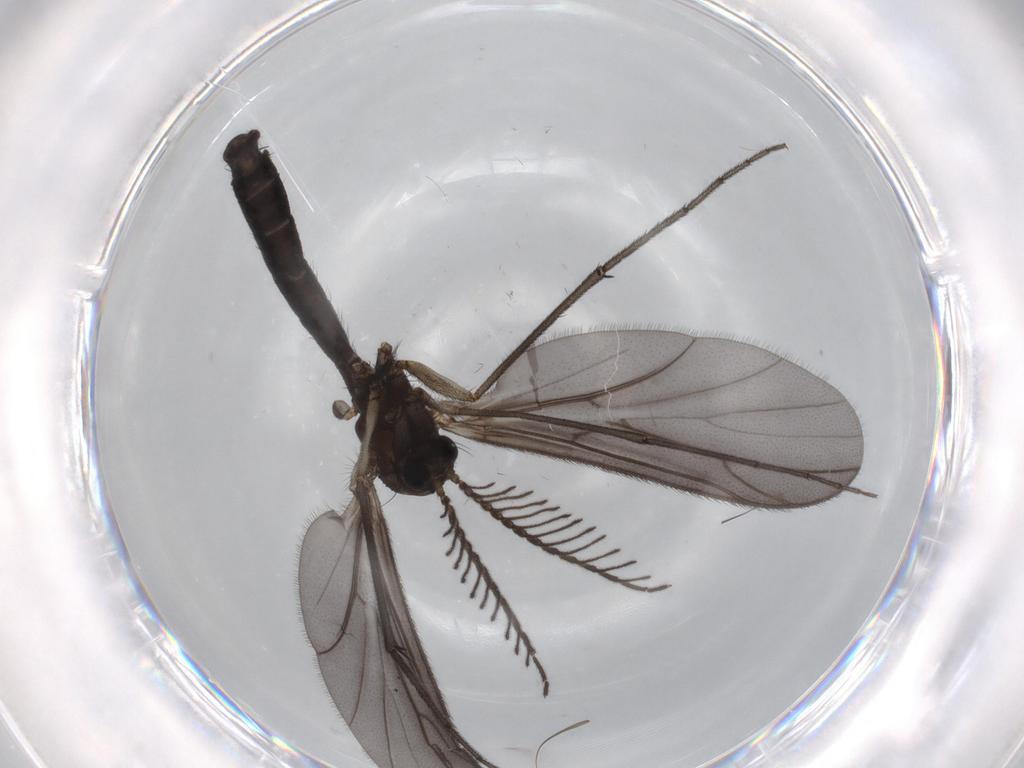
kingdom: Animalia
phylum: Arthropoda
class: Insecta
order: Diptera
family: Ditomyiidae
